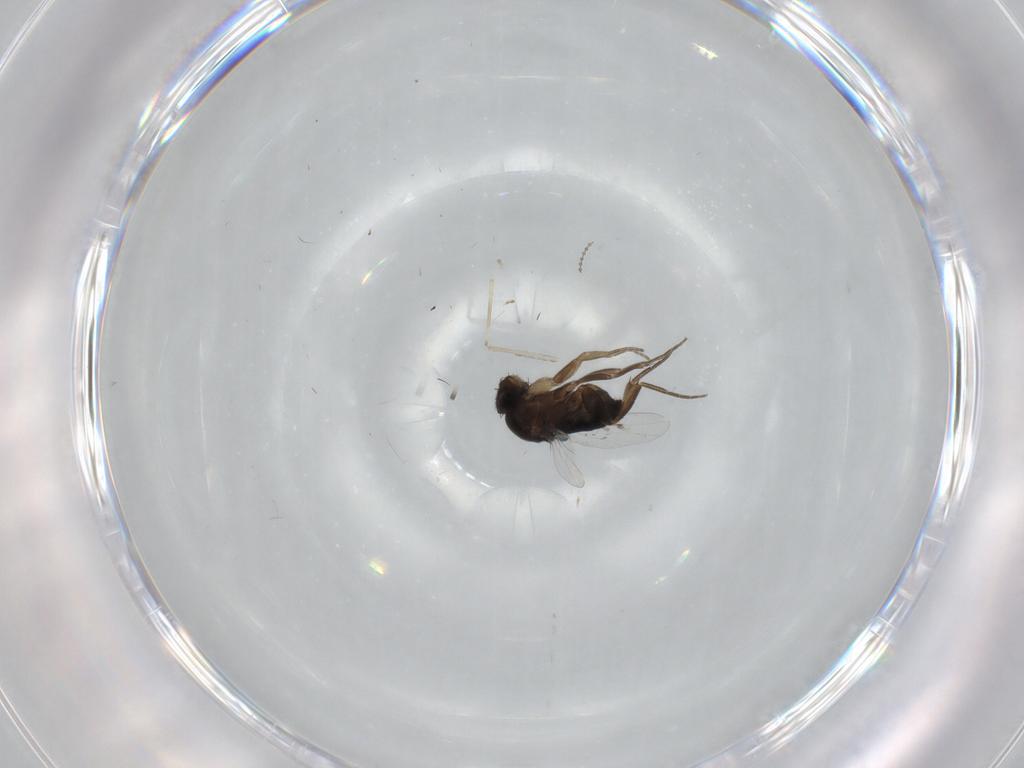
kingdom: Animalia
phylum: Arthropoda
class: Insecta
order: Diptera
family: Phoridae
